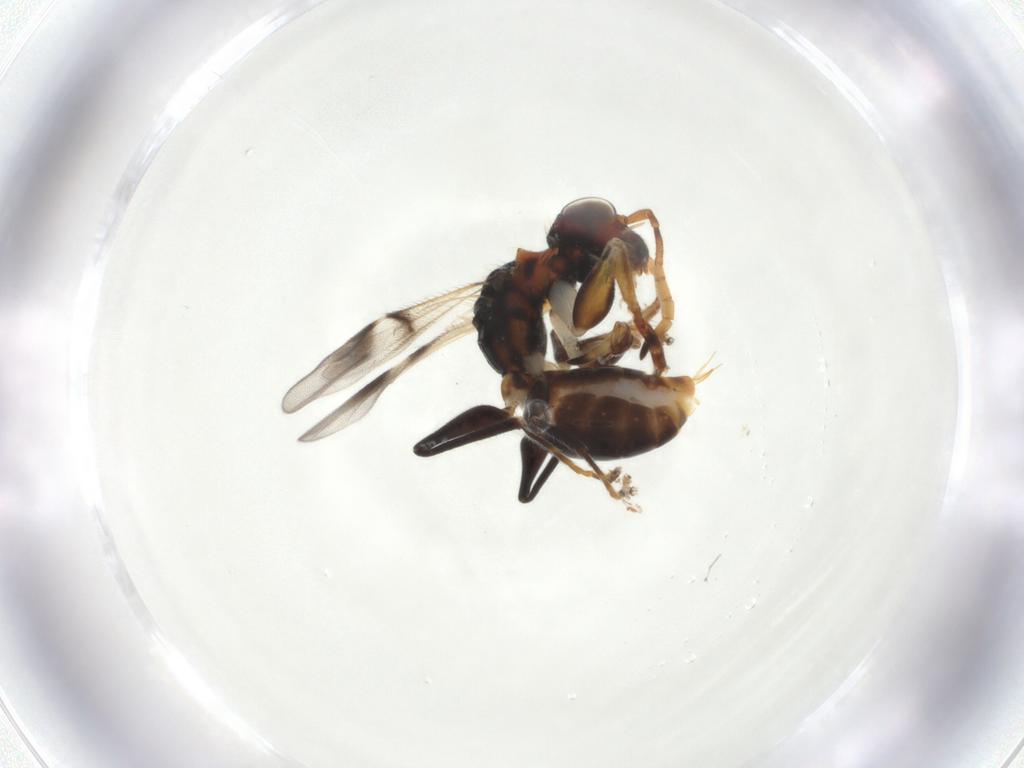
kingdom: Animalia
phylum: Arthropoda
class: Insecta
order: Hymenoptera
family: Dryinidae
